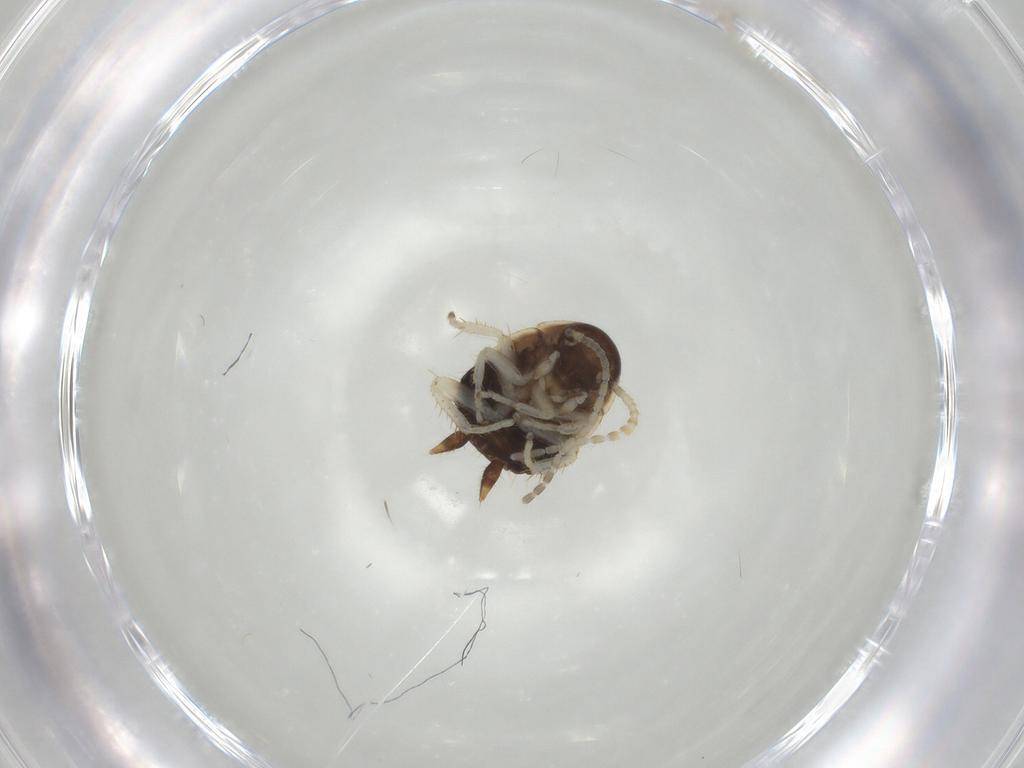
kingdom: Animalia
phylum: Arthropoda
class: Insecta
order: Blattodea
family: Ectobiidae
